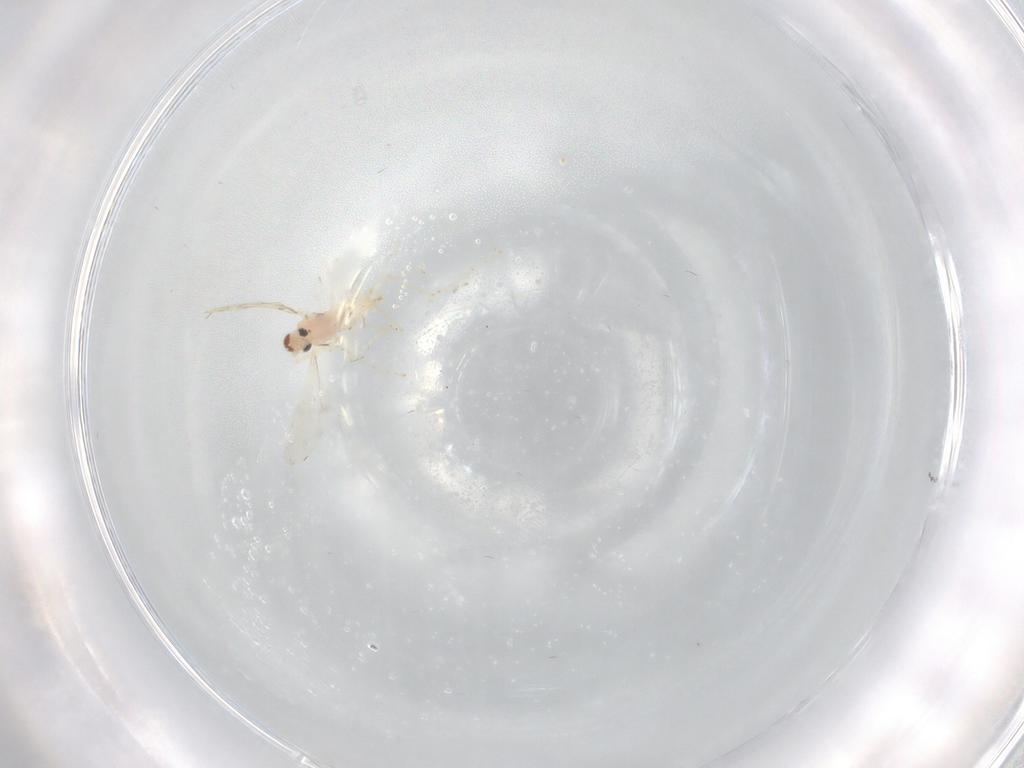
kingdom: Animalia
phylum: Arthropoda
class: Insecta
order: Diptera
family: Cecidomyiidae
